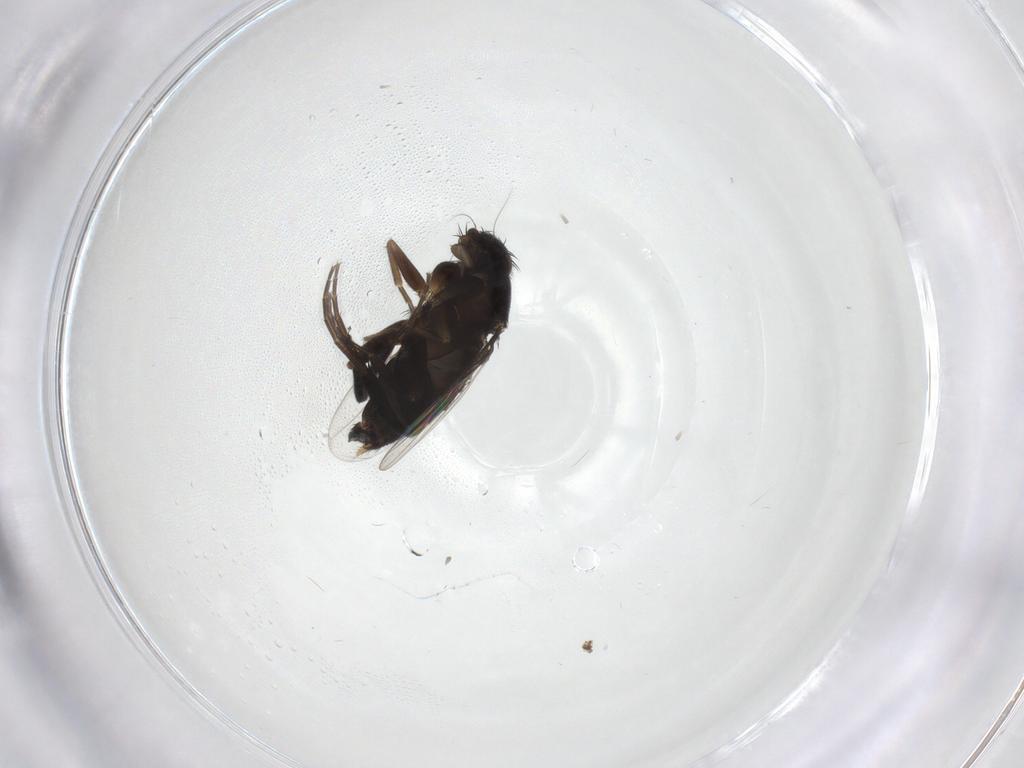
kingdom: Animalia
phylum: Arthropoda
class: Insecta
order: Diptera
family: Phoridae
